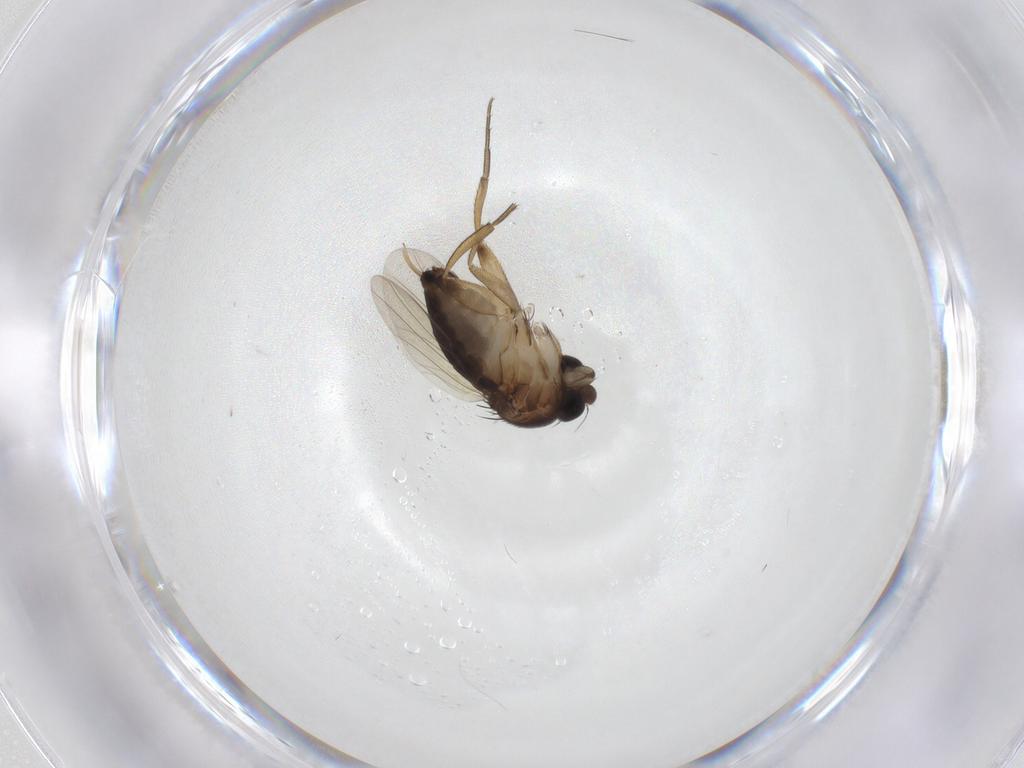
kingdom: Animalia
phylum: Arthropoda
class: Insecta
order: Diptera
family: Phoridae
